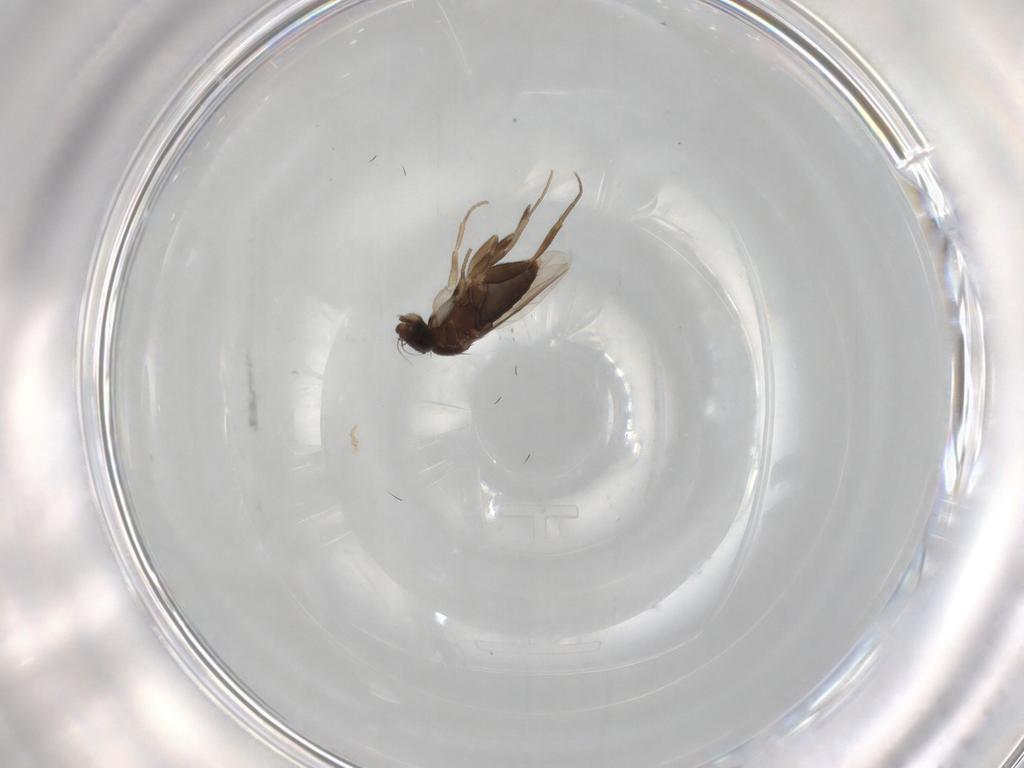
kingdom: Animalia
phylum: Arthropoda
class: Insecta
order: Diptera
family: Phoridae
